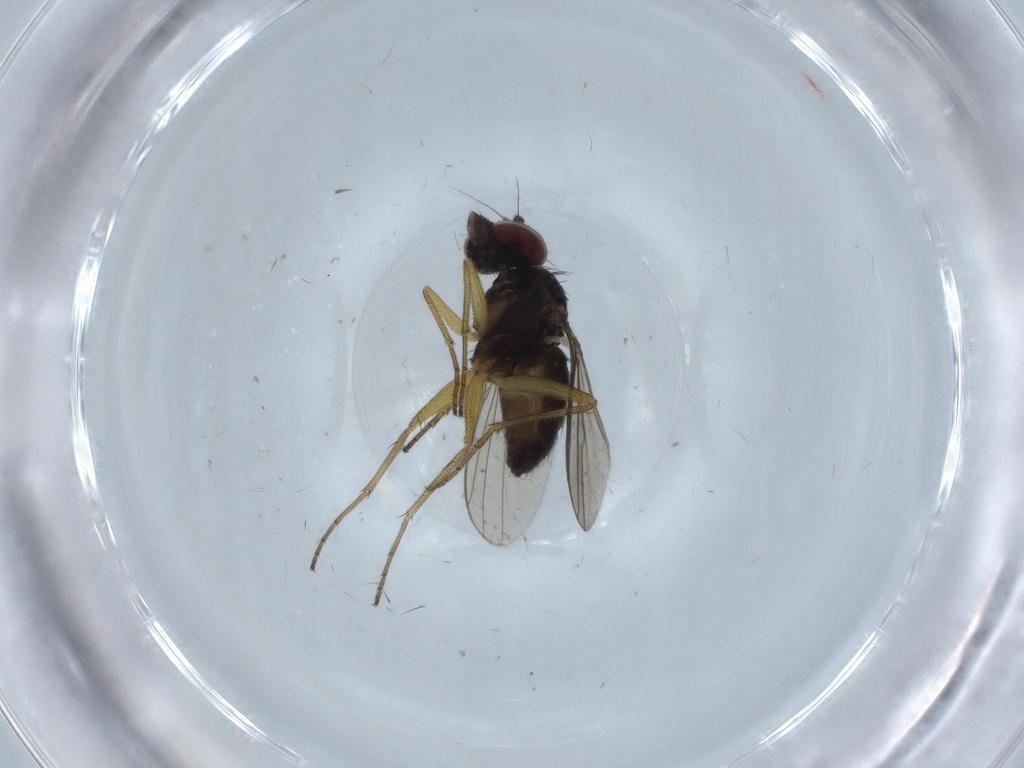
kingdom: Animalia
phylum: Arthropoda
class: Insecta
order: Diptera
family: Dolichopodidae
